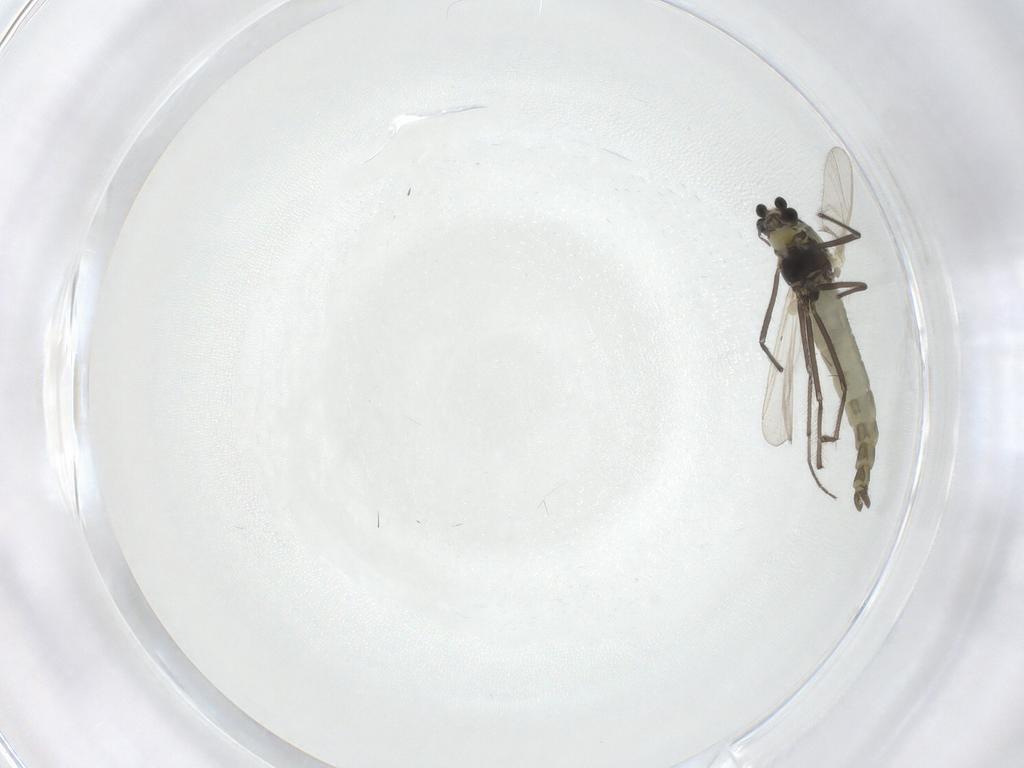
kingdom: Animalia
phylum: Arthropoda
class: Insecta
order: Diptera
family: Chironomidae
